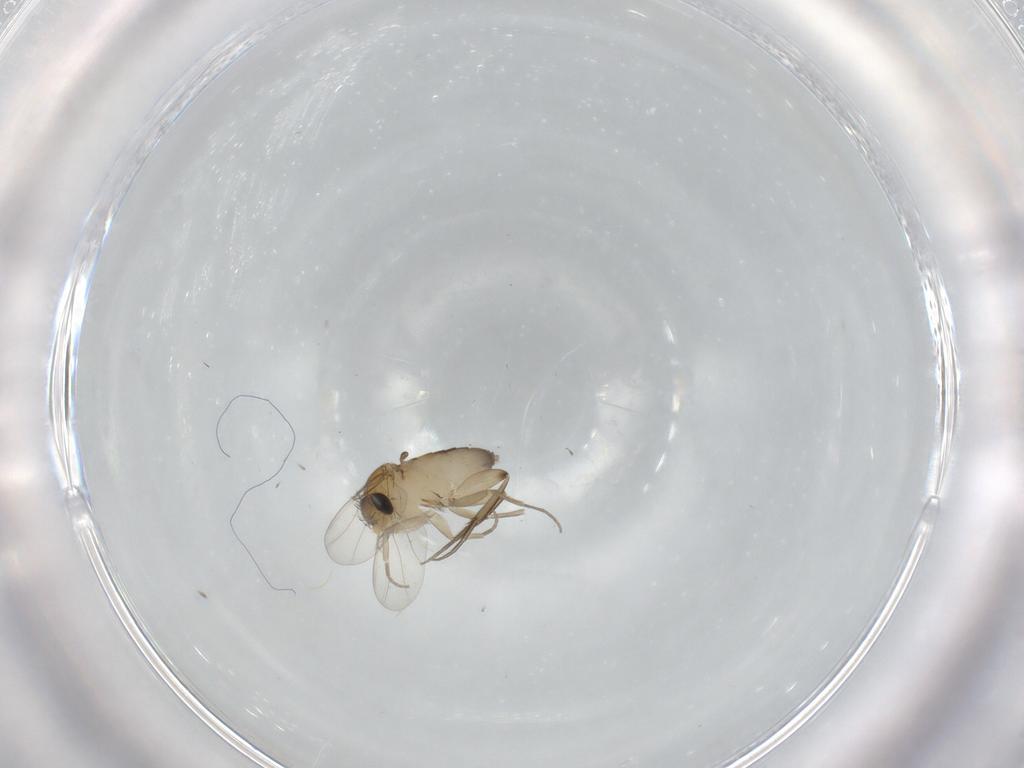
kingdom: Animalia
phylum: Arthropoda
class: Insecta
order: Diptera
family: Phoridae
